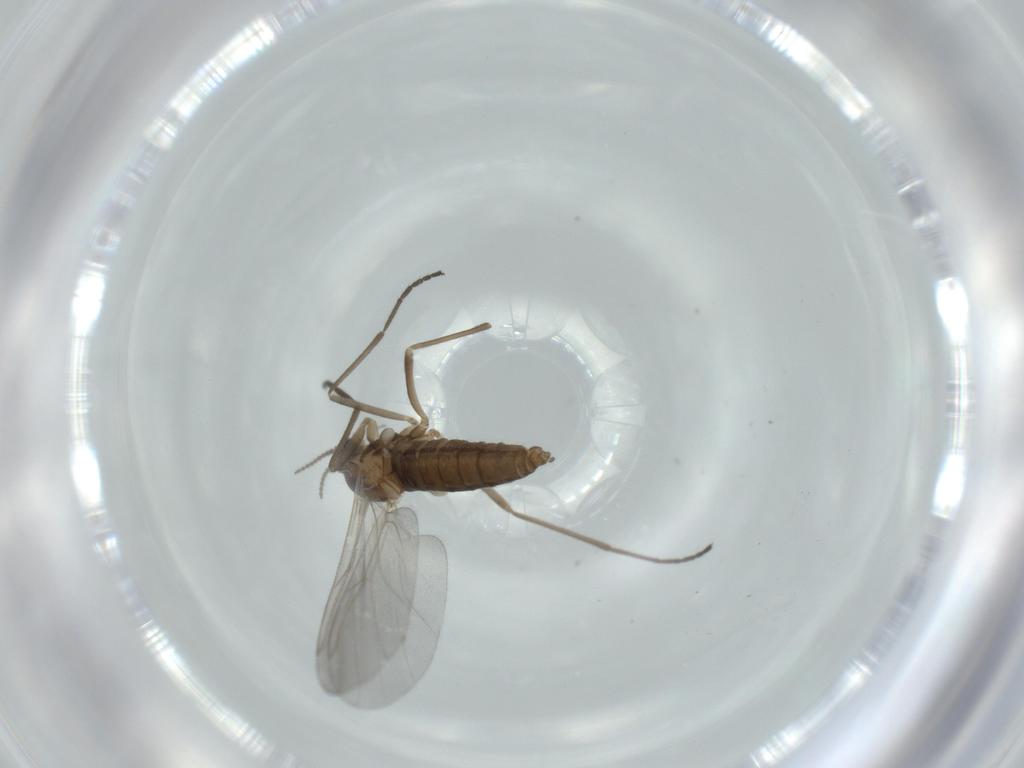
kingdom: Animalia
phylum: Arthropoda
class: Insecta
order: Diptera
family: Cecidomyiidae
